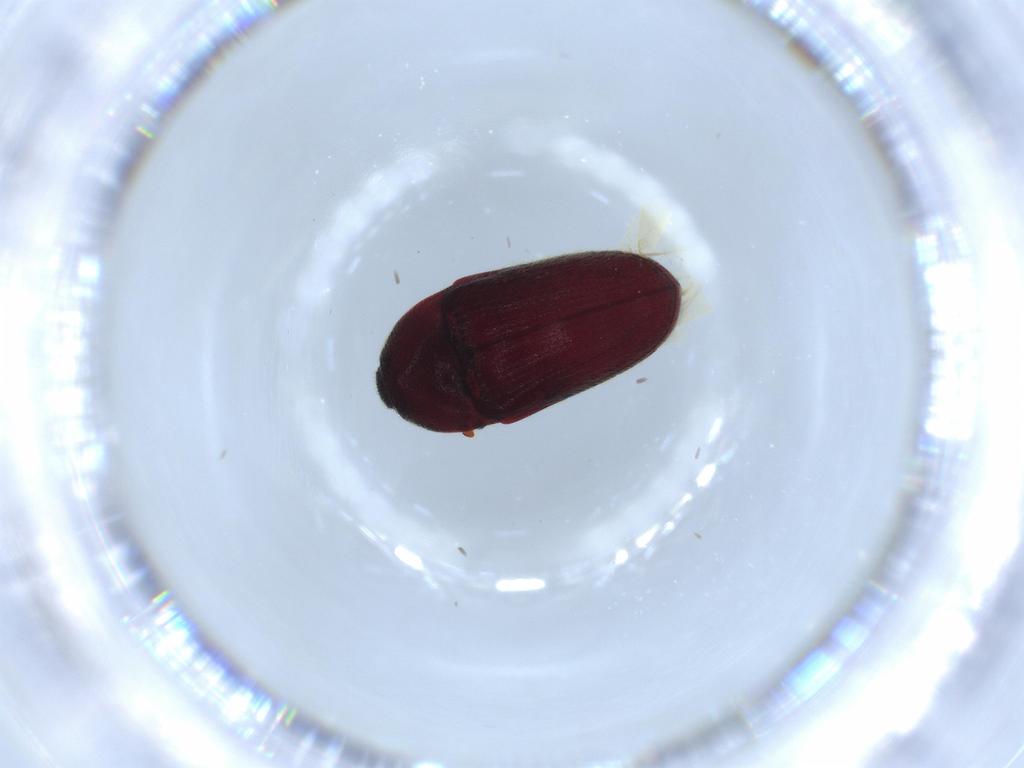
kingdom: Animalia
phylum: Arthropoda
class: Insecta
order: Coleoptera
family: Throscidae
